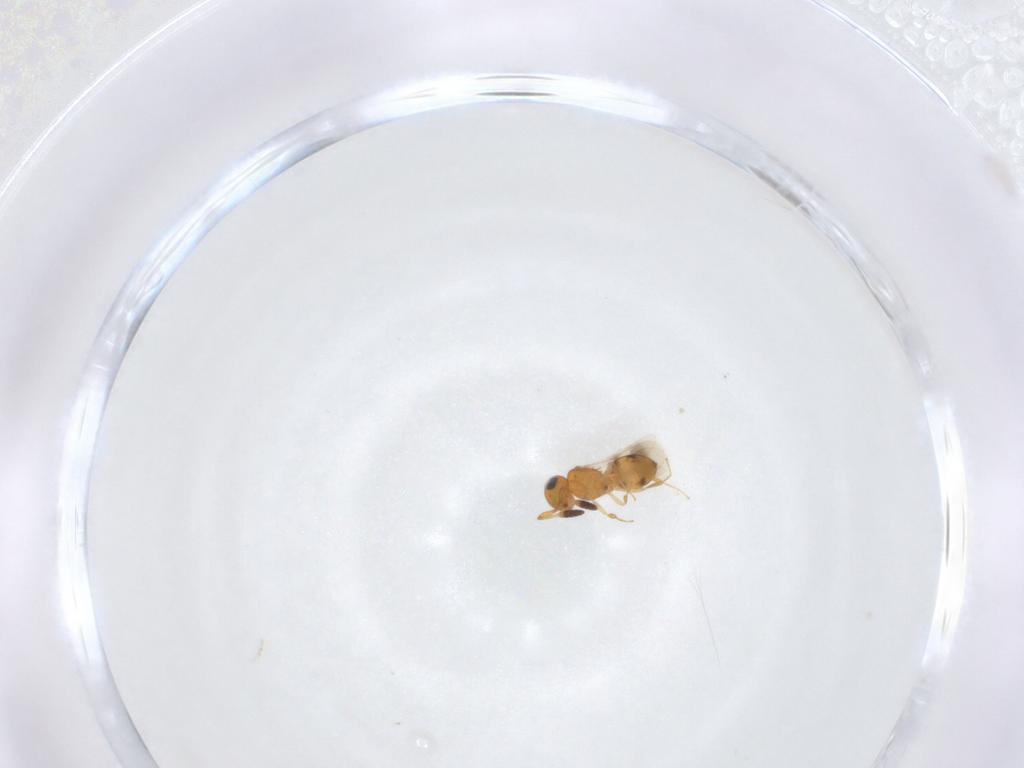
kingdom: Animalia
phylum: Arthropoda
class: Insecta
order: Hymenoptera
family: Scelionidae
